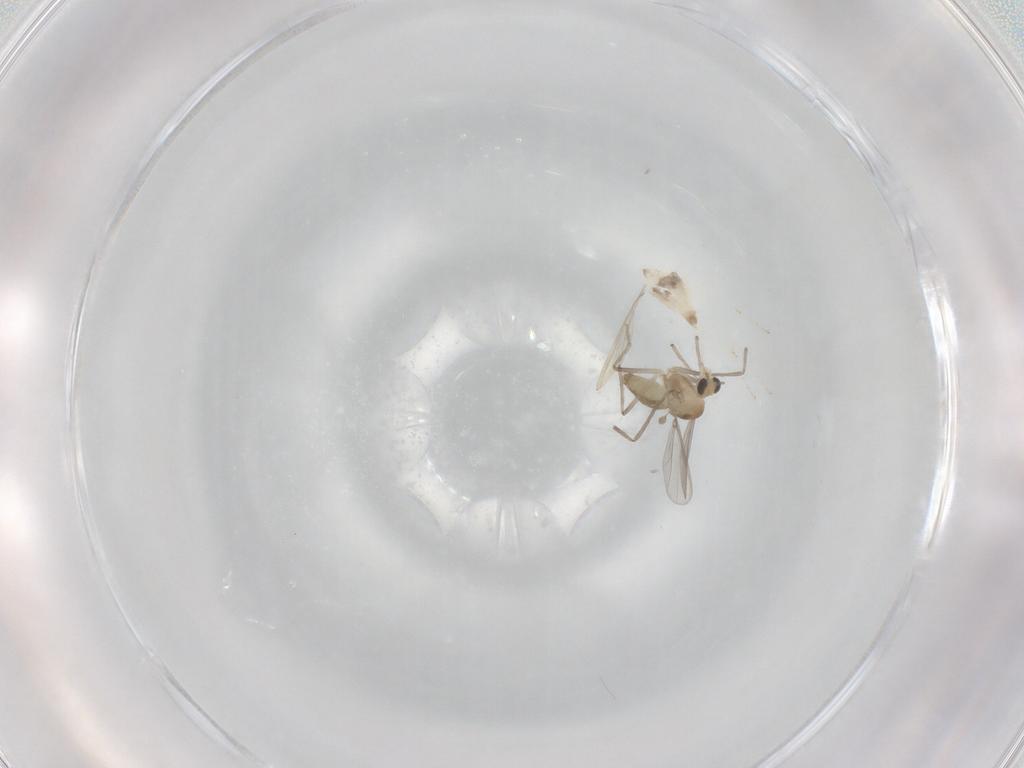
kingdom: Animalia
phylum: Arthropoda
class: Insecta
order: Diptera
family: Chironomidae
